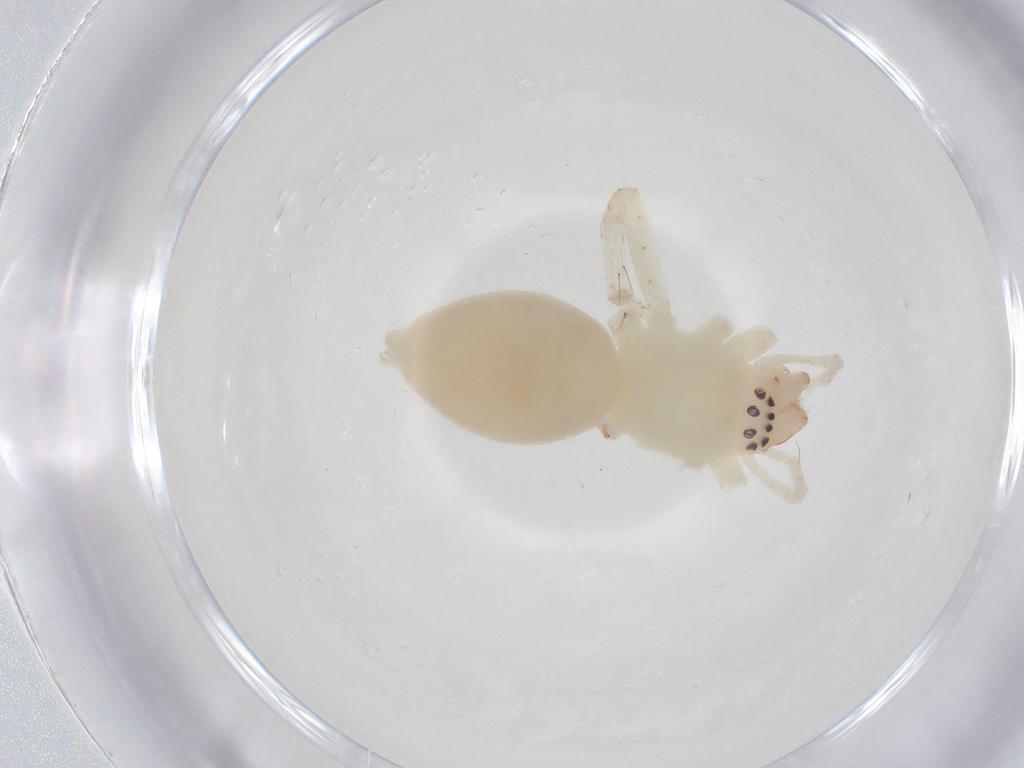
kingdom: Animalia
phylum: Arthropoda
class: Arachnida
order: Araneae
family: Anyphaenidae
